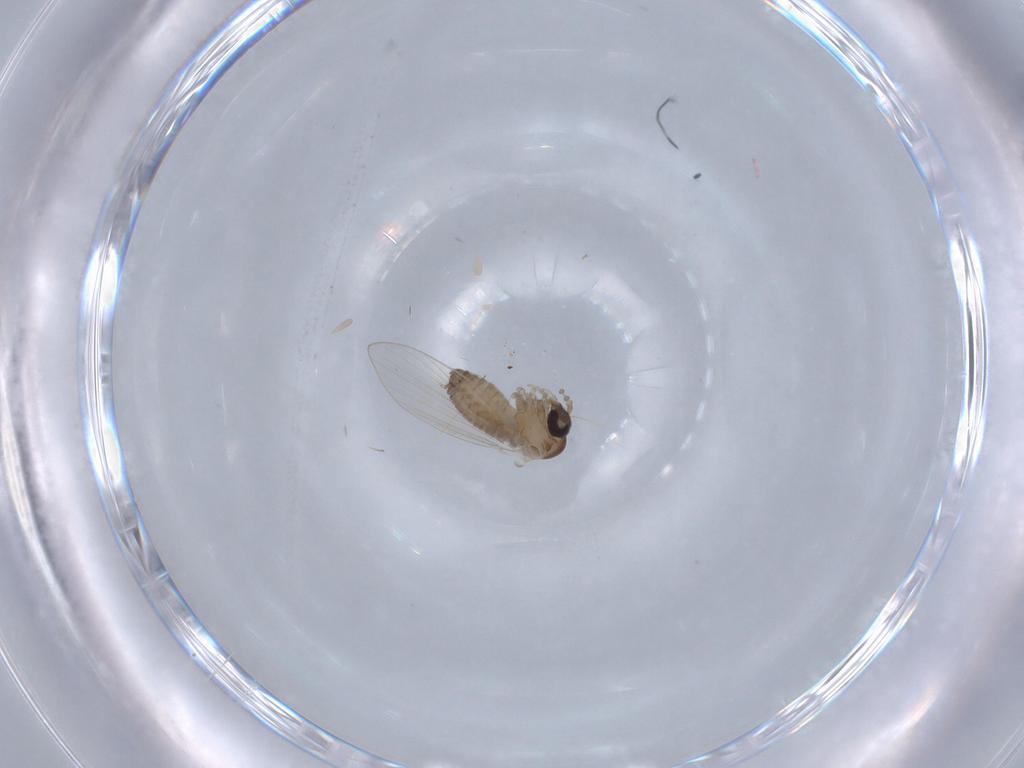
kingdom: Animalia
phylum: Arthropoda
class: Insecta
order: Diptera
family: Psychodidae
